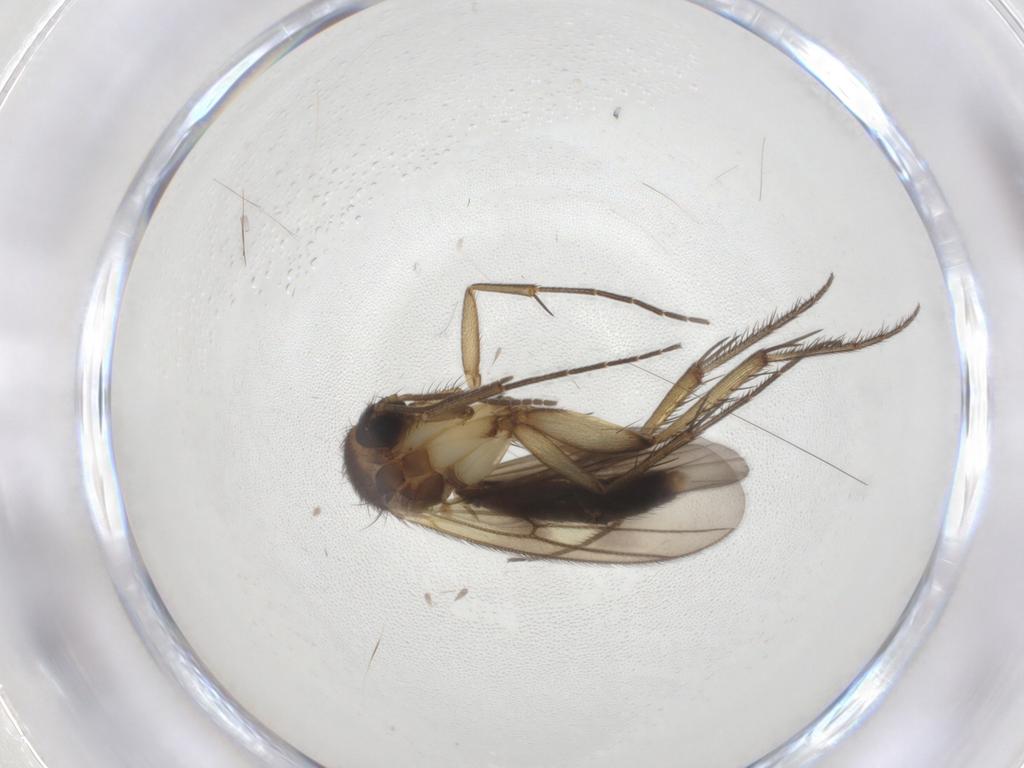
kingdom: Animalia
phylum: Arthropoda
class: Insecta
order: Diptera
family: Mycetophilidae
